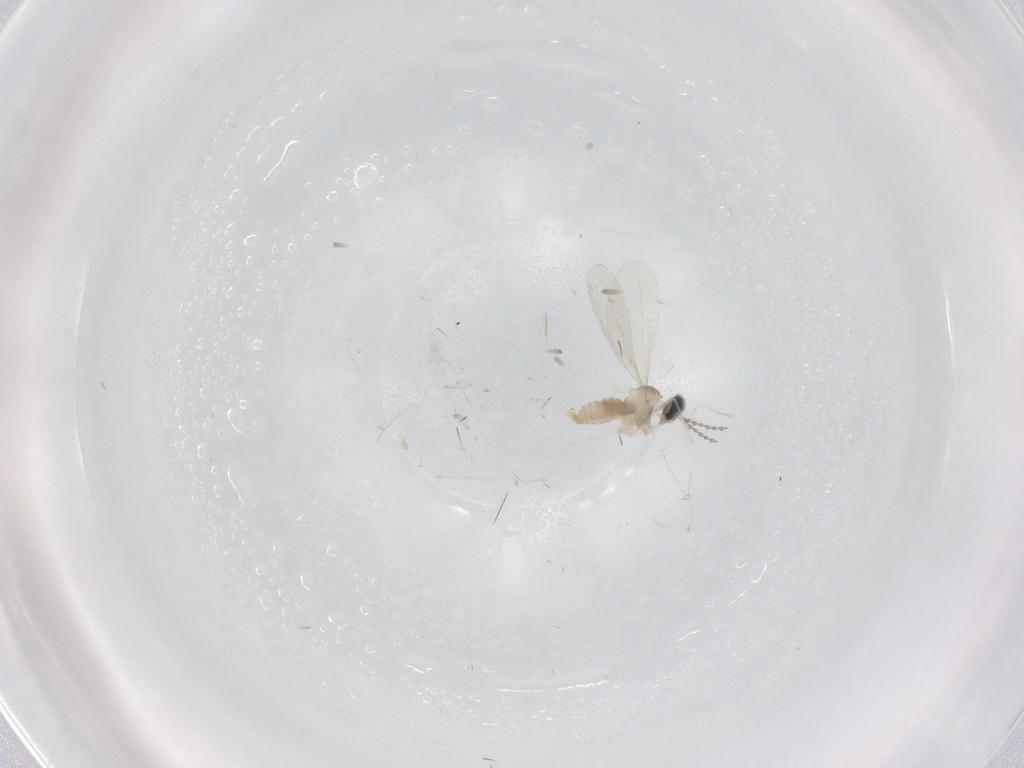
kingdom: Animalia
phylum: Arthropoda
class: Insecta
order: Diptera
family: Cecidomyiidae
